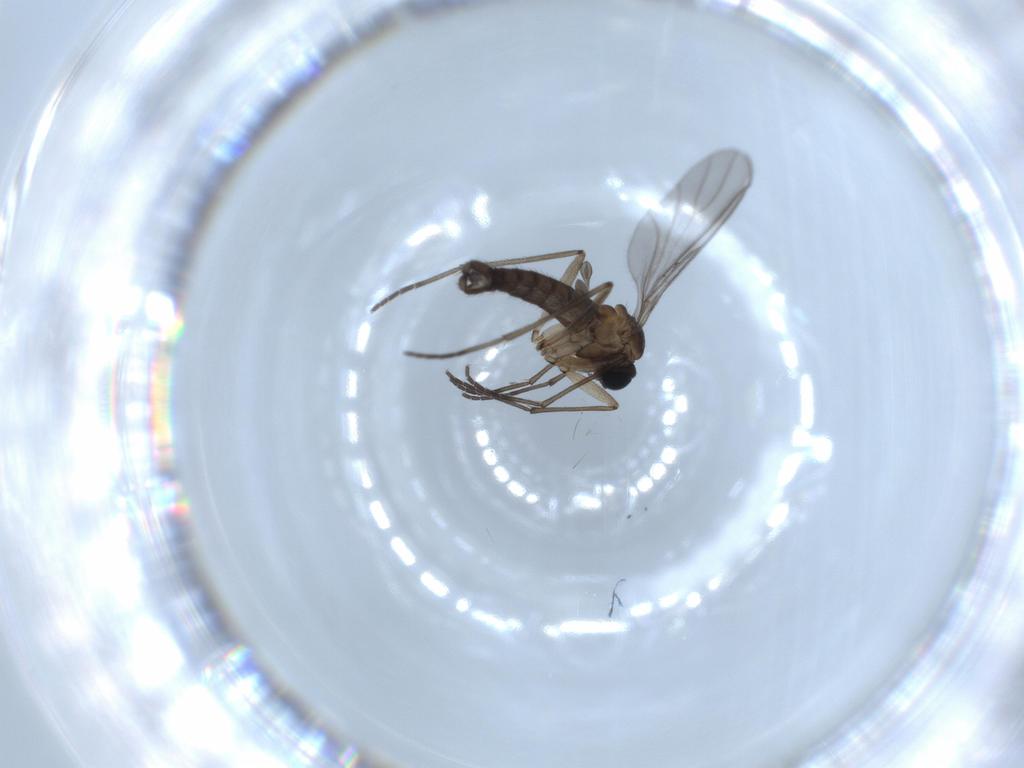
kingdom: Animalia
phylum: Arthropoda
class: Insecta
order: Diptera
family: Sciaridae
